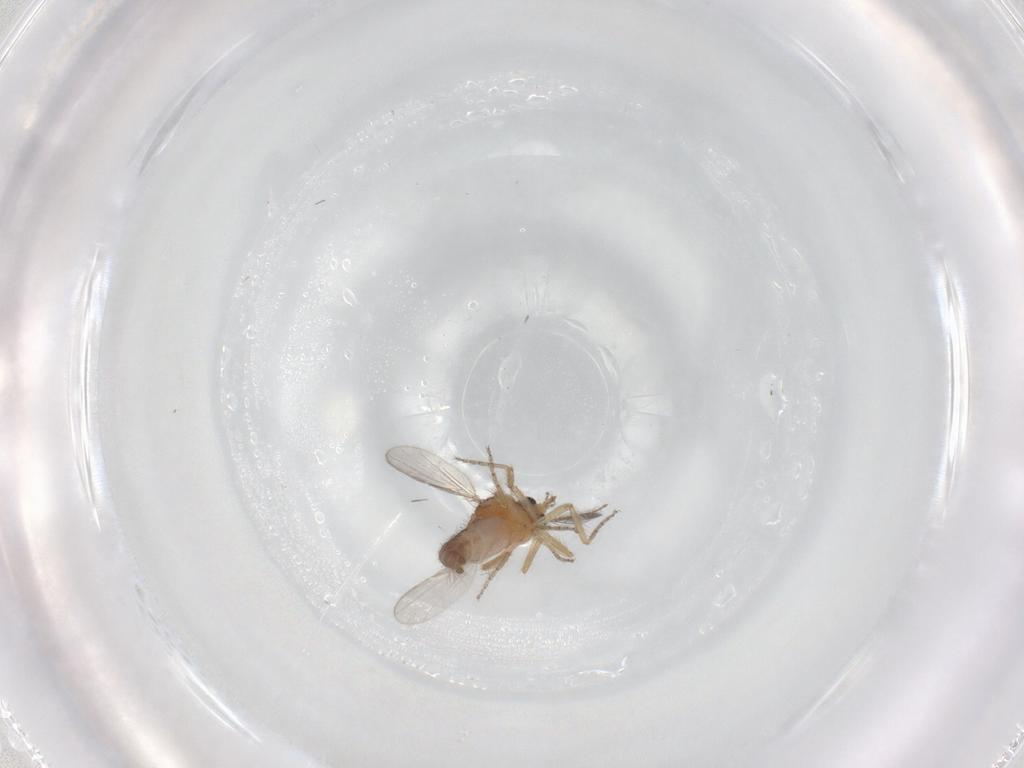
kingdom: Animalia
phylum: Arthropoda
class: Insecta
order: Diptera
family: Ceratopogonidae
